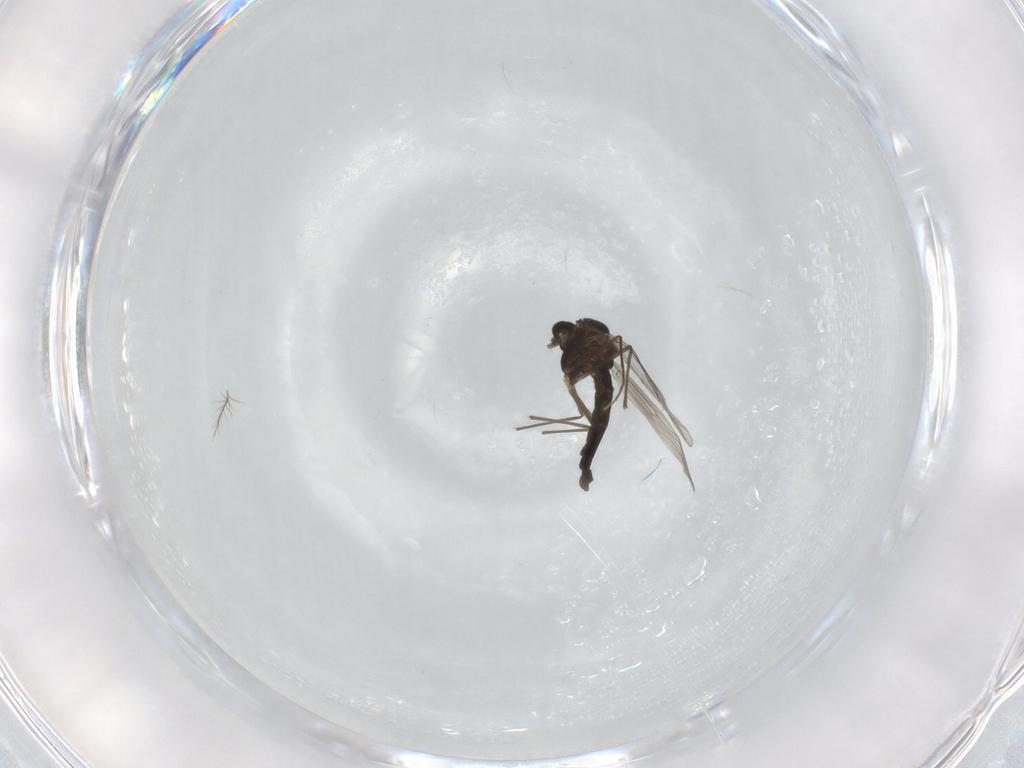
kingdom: Animalia
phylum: Arthropoda
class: Insecta
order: Diptera
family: Chironomidae
